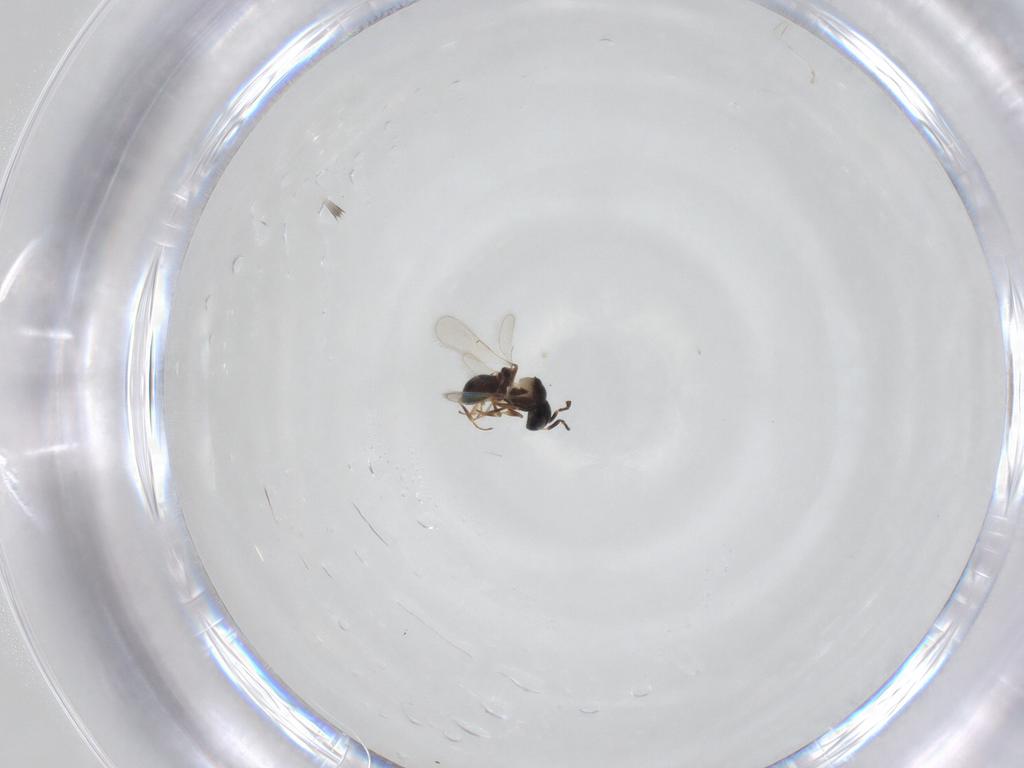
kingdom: Animalia
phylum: Arthropoda
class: Insecta
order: Hymenoptera
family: Scelionidae
